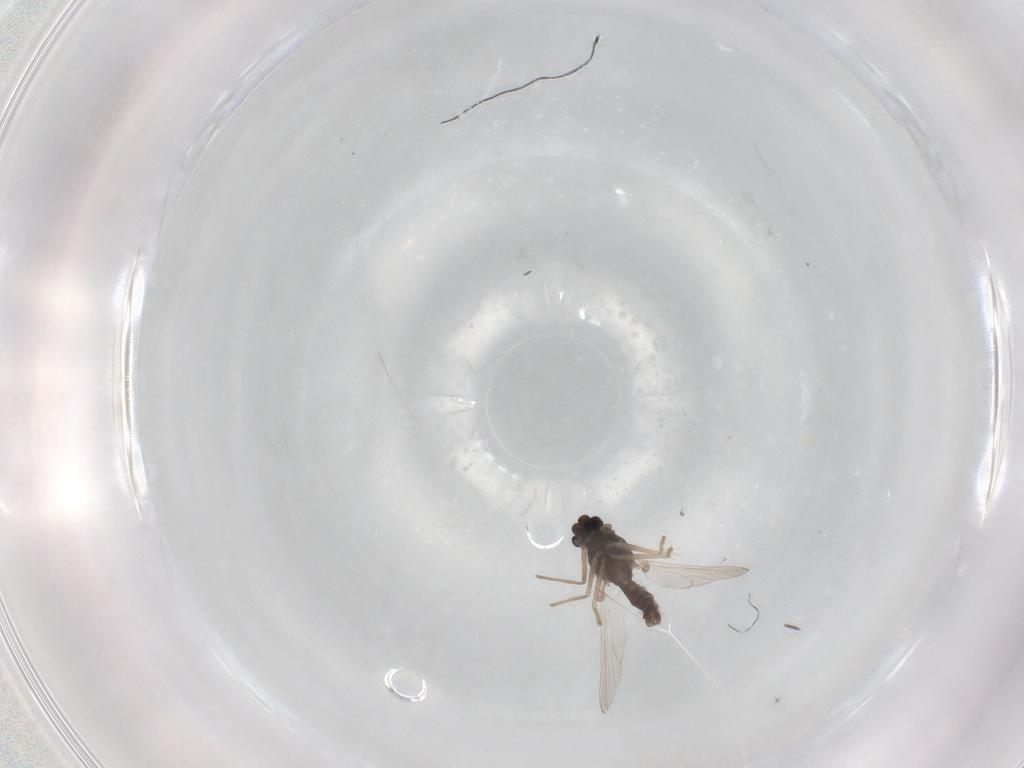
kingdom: Animalia
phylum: Arthropoda
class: Insecta
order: Diptera
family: Chironomidae
